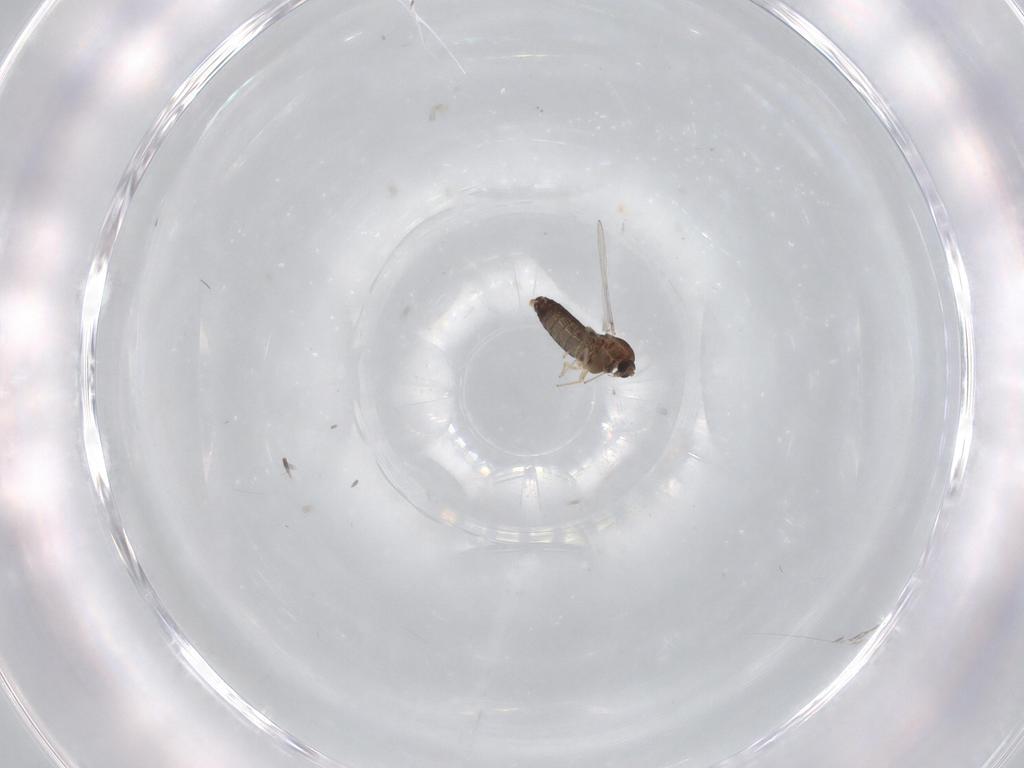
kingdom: Animalia
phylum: Arthropoda
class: Insecta
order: Diptera
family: Chironomidae
